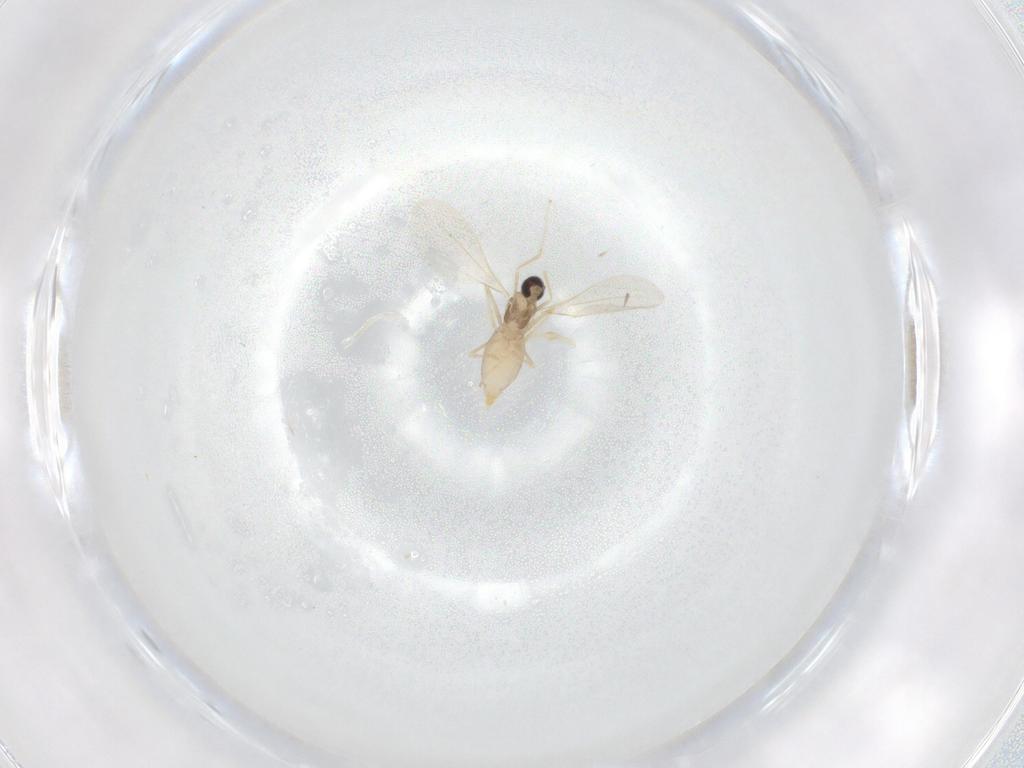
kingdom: Animalia
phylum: Arthropoda
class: Insecta
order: Diptera
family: Cecidomyiidae
